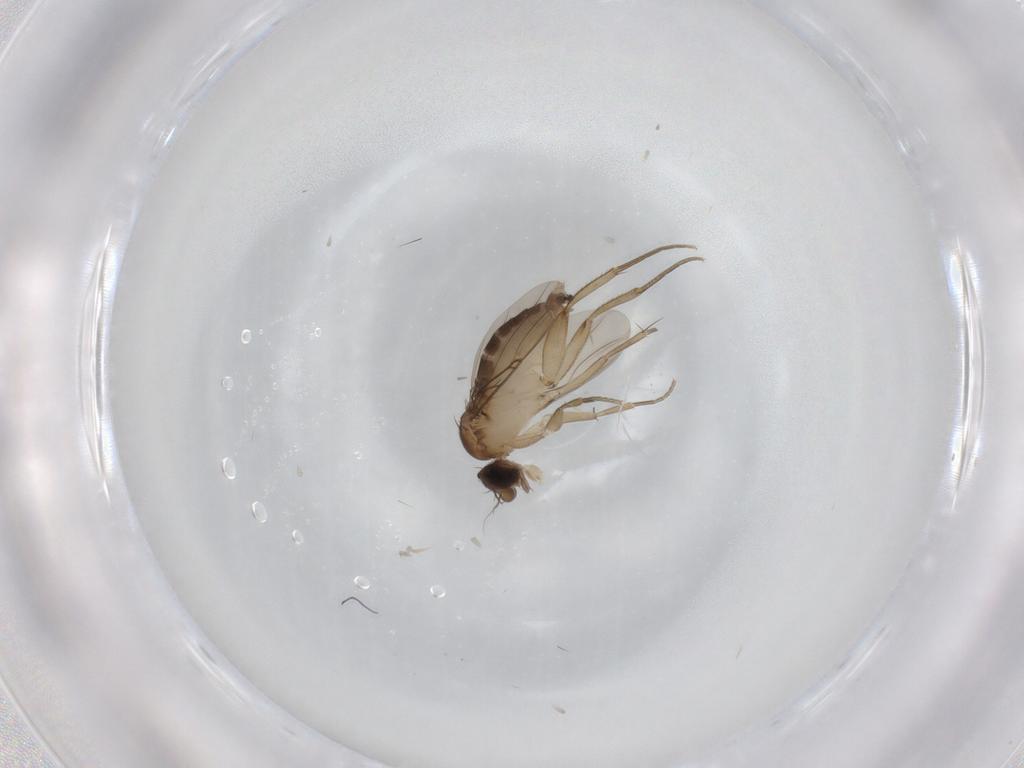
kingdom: Animalia
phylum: Arthropoda
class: Insecta
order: Diptera
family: Phoridae
